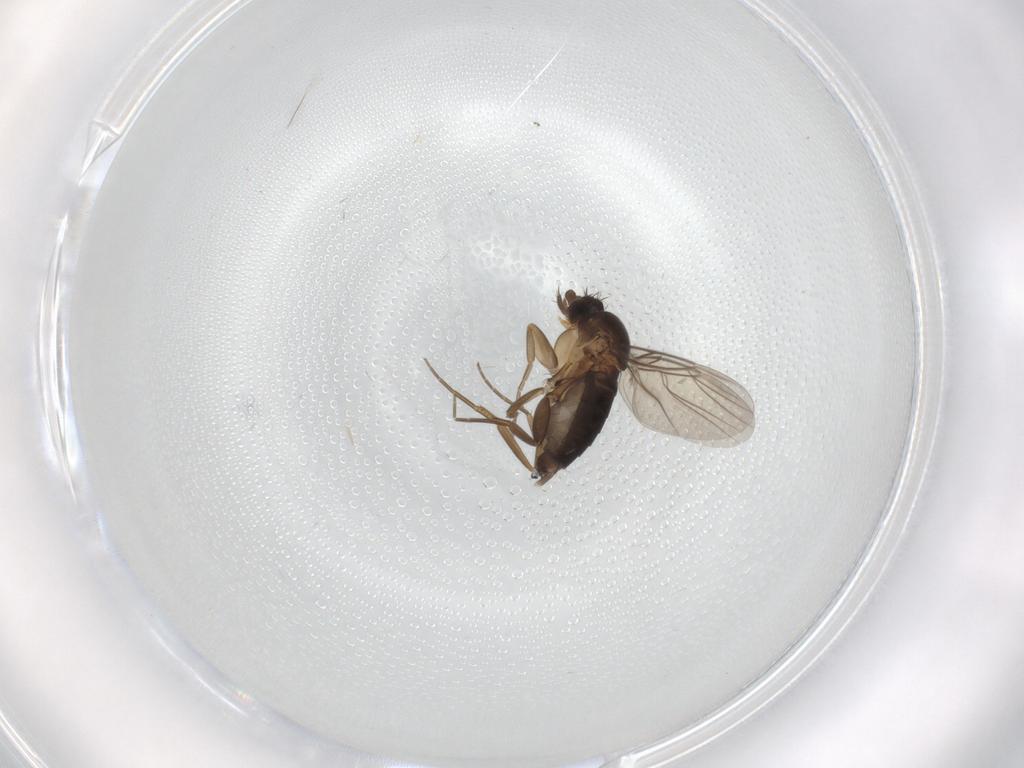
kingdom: Animalia
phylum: Arthropoda
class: Insecta
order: Diptera
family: Phoridae
